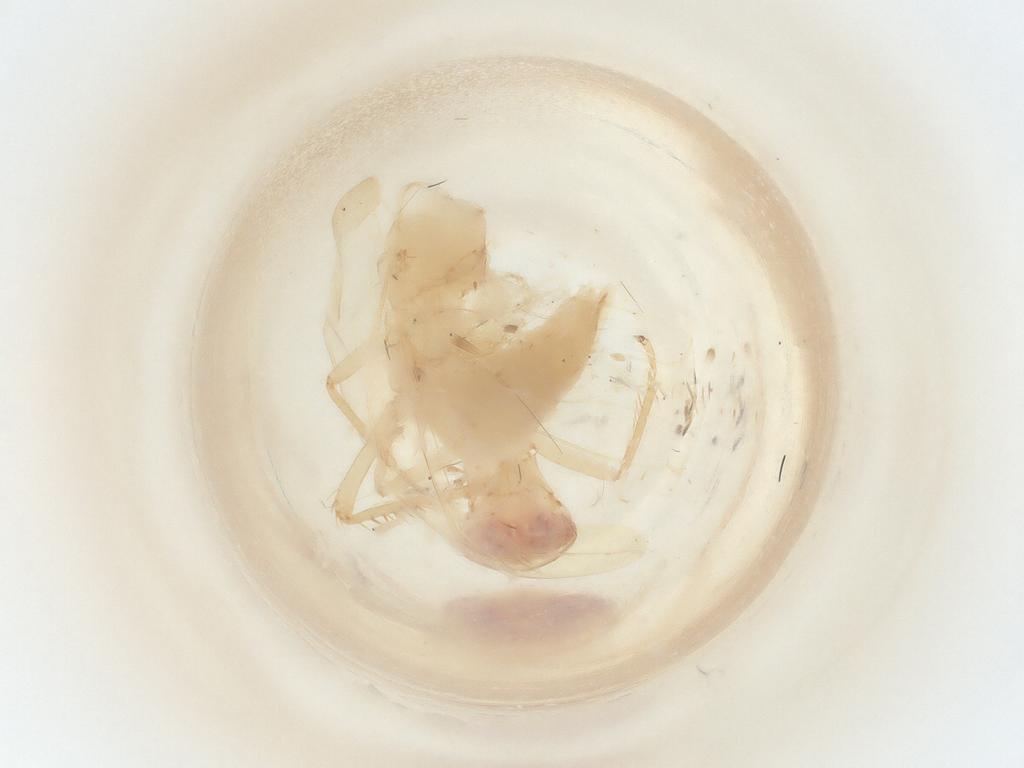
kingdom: Animalia
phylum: Arthropoda
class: Insecta
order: Hemiptera
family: Cicadellidae
